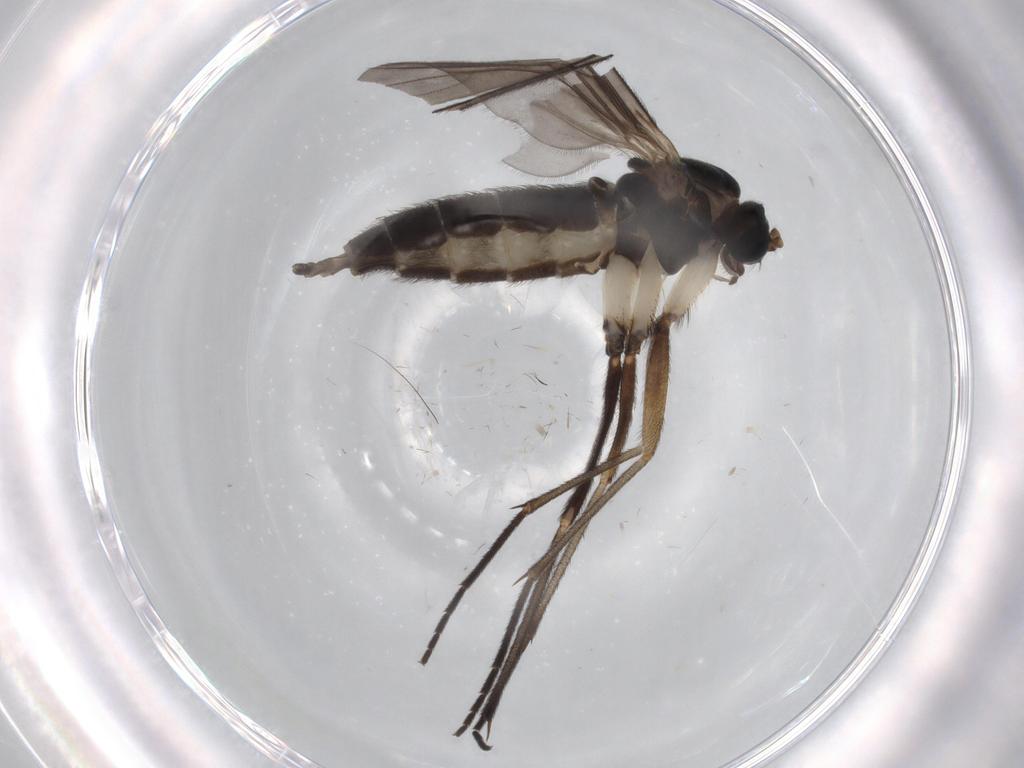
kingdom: Animalia
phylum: Arthropoda
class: Insecta
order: Diptera
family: Sciaridae
